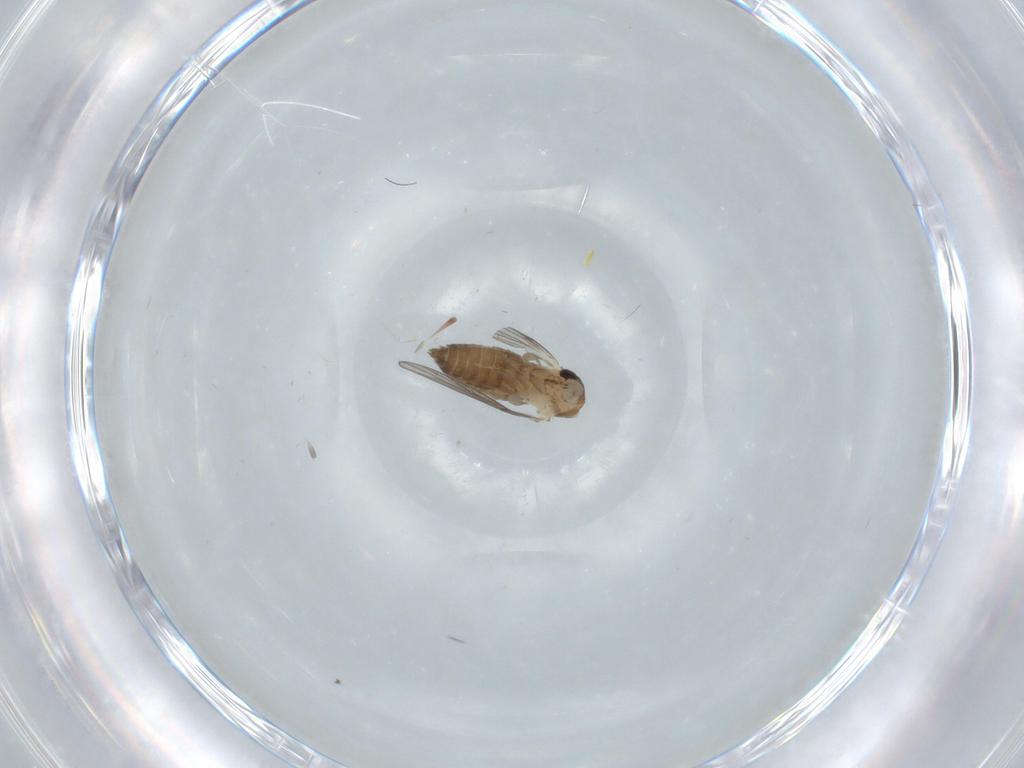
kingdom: Animalia
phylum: Arthropoda
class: Insecta
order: Diptera
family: Chironomidae
